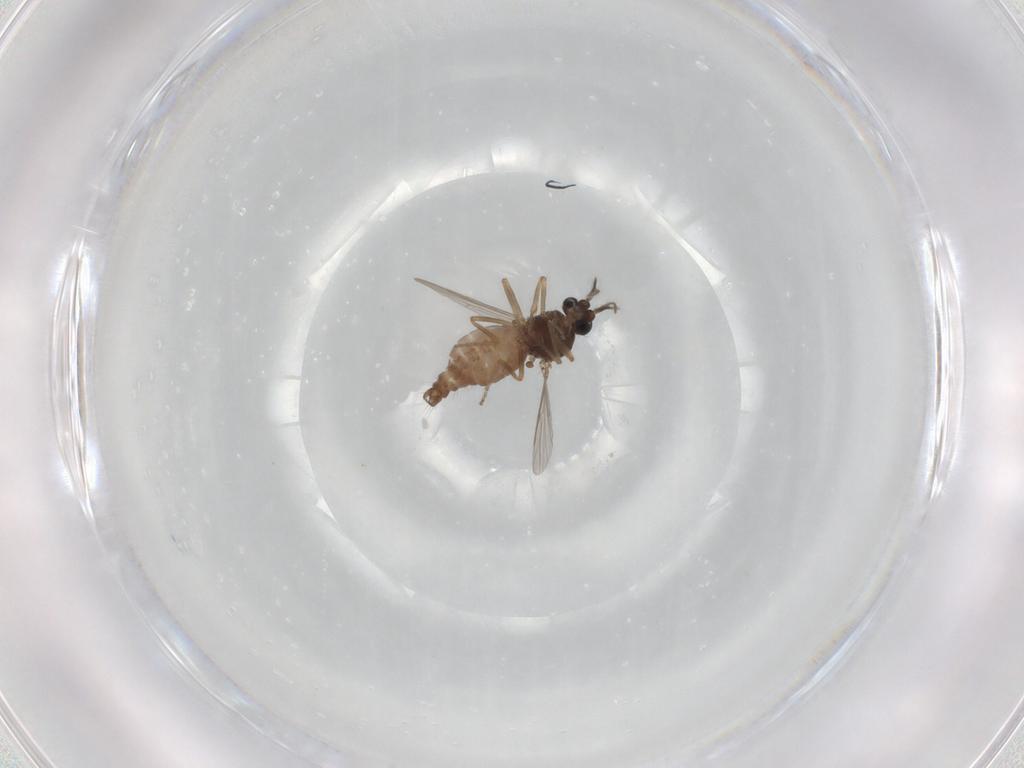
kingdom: Animalia
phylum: Arthropoda
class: Insecta
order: Diptera
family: Ceratopogonidae
